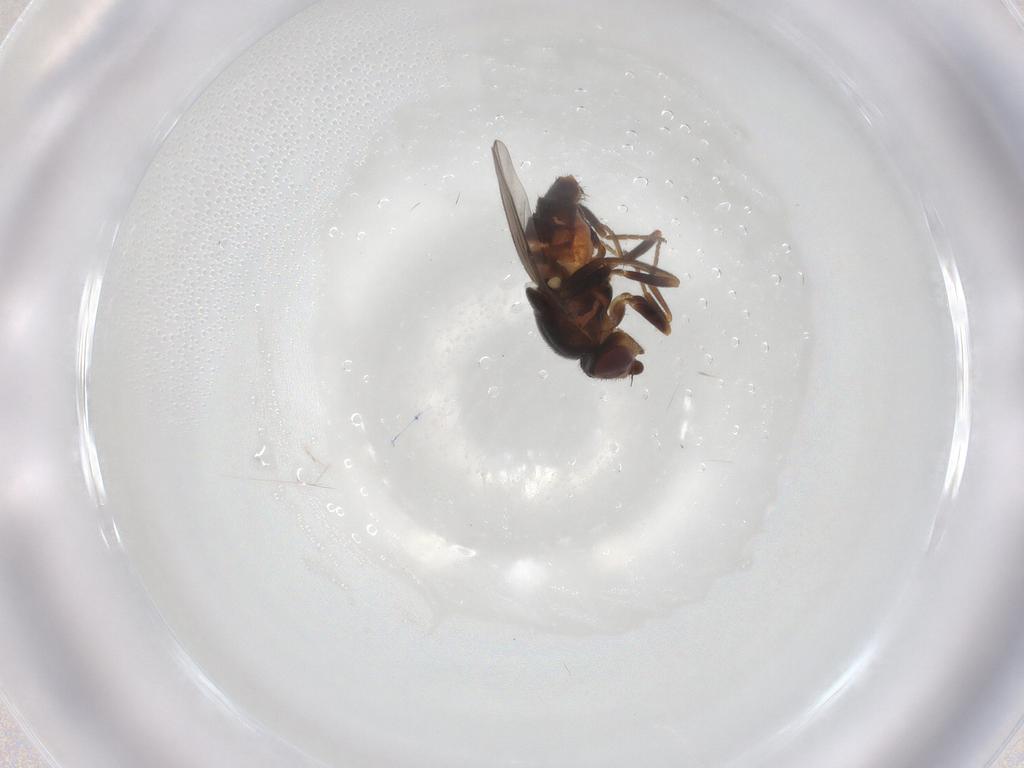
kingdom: Animalia
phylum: Arthropoda
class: Insecta
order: Diptera
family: Chloropidae
